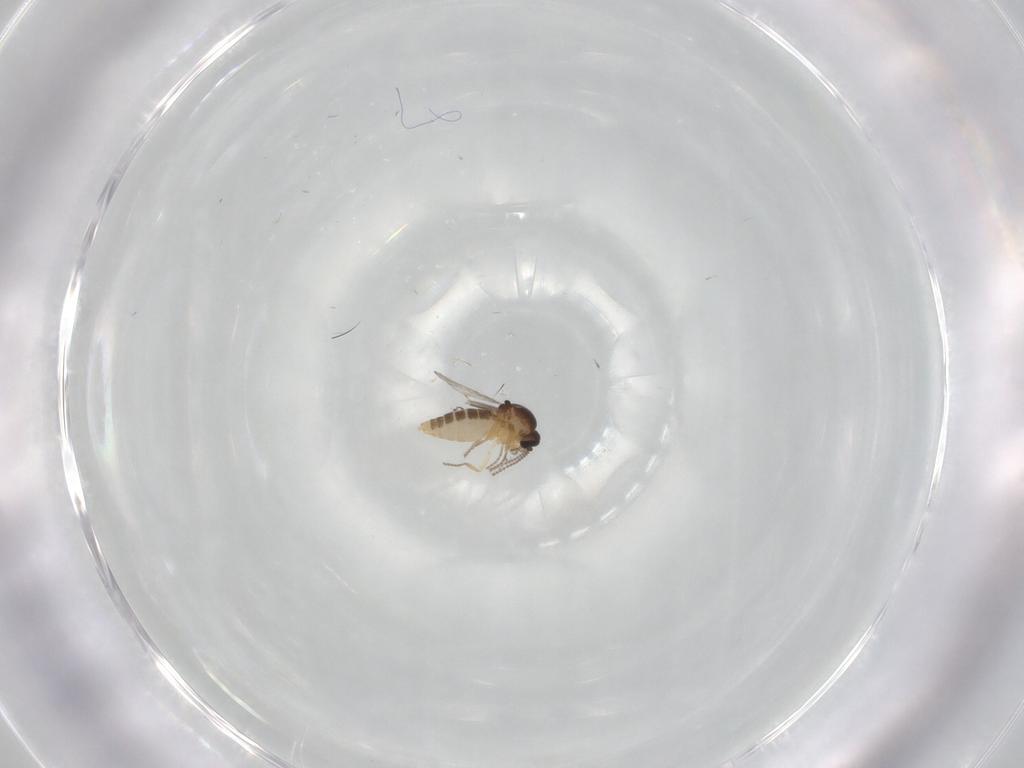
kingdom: Animalia
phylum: Arthropoda
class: Insecta
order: Diptera
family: Ceratopogonidae
